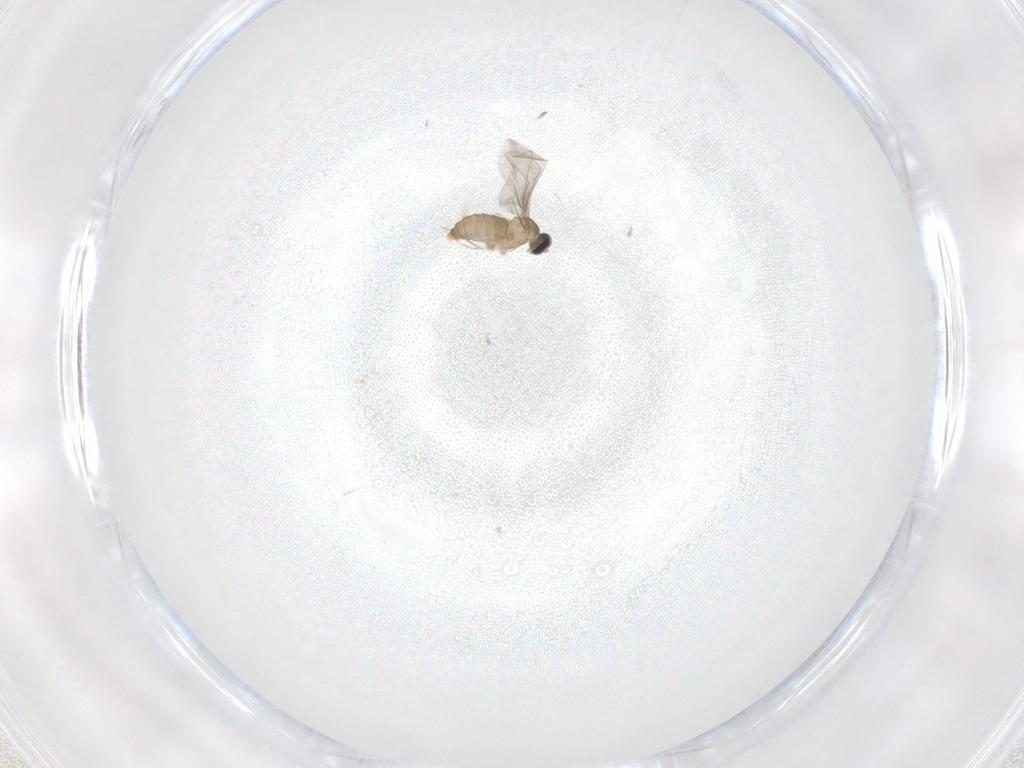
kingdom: Animalia
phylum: Arthropoda
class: Insecta
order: Diptera
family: Cecidomyiidae
